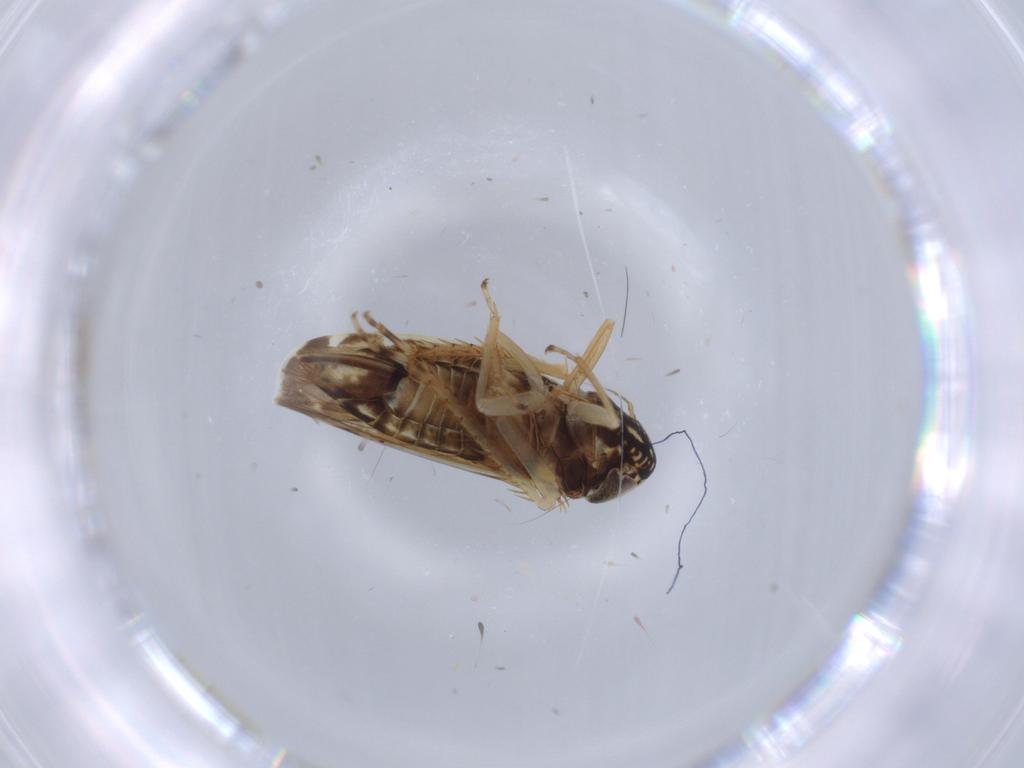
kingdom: Animalia
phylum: Arthropoda
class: Insecta
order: Hemiptera
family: Cicadellidae
